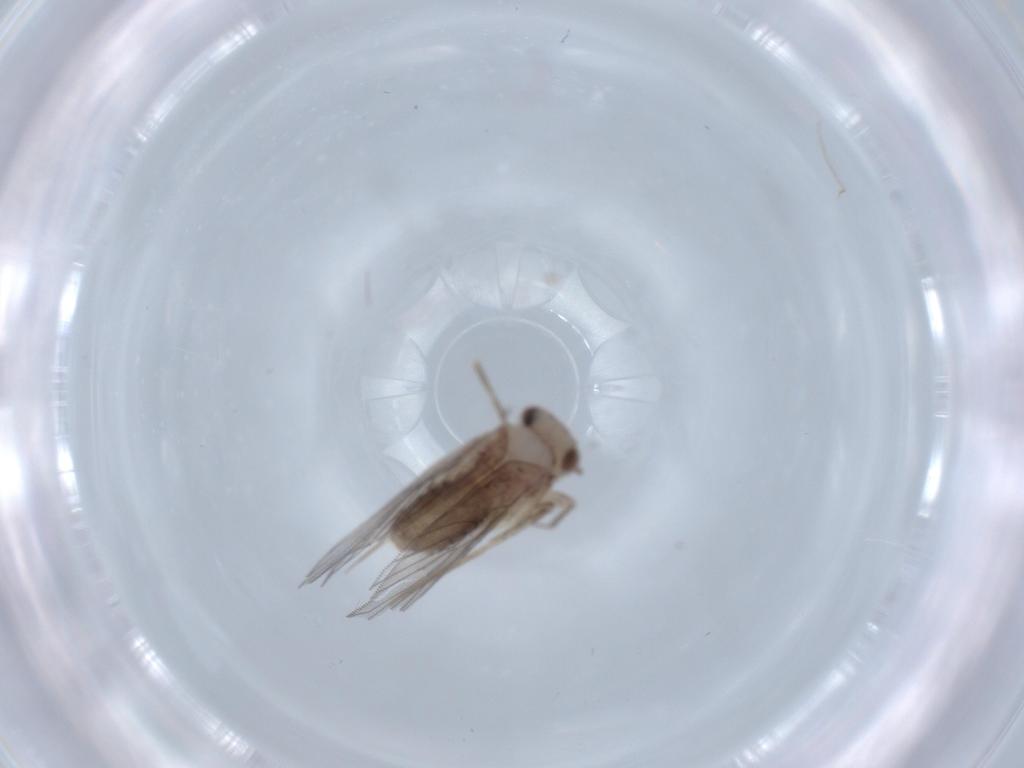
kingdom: Animalia
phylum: Arthropoda
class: Insecta
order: Psocodea
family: Lepidopsocidae
